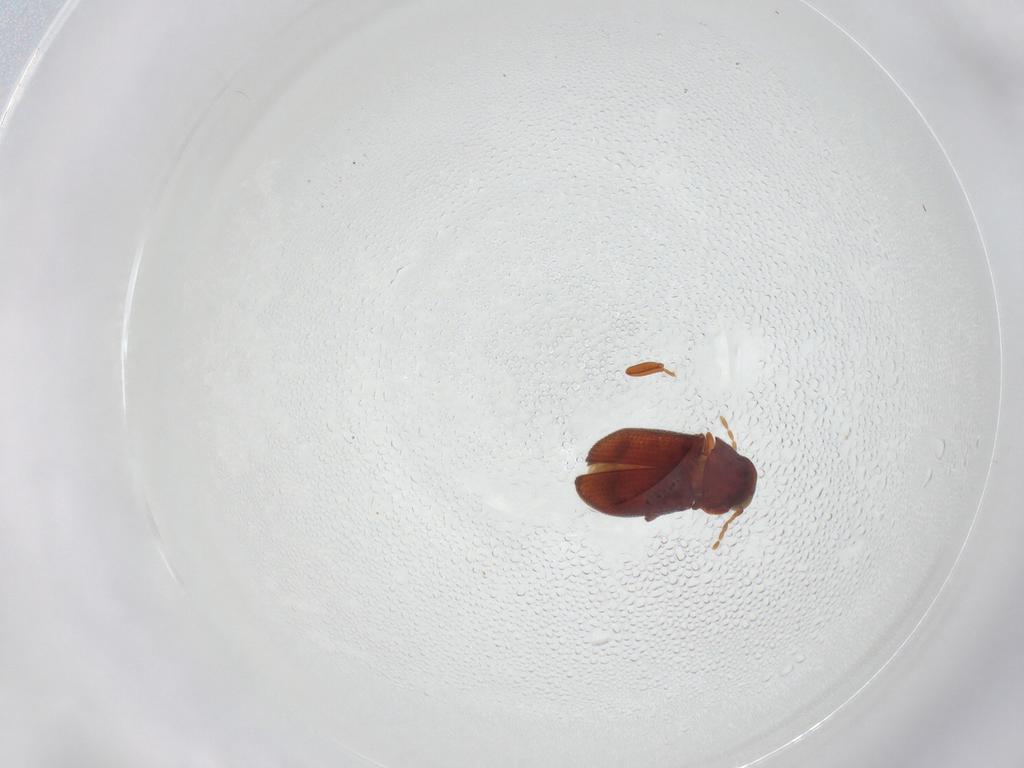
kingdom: Animalia
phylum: Arthropoda
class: Insecta
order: Coleoptera
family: Ptinidae
